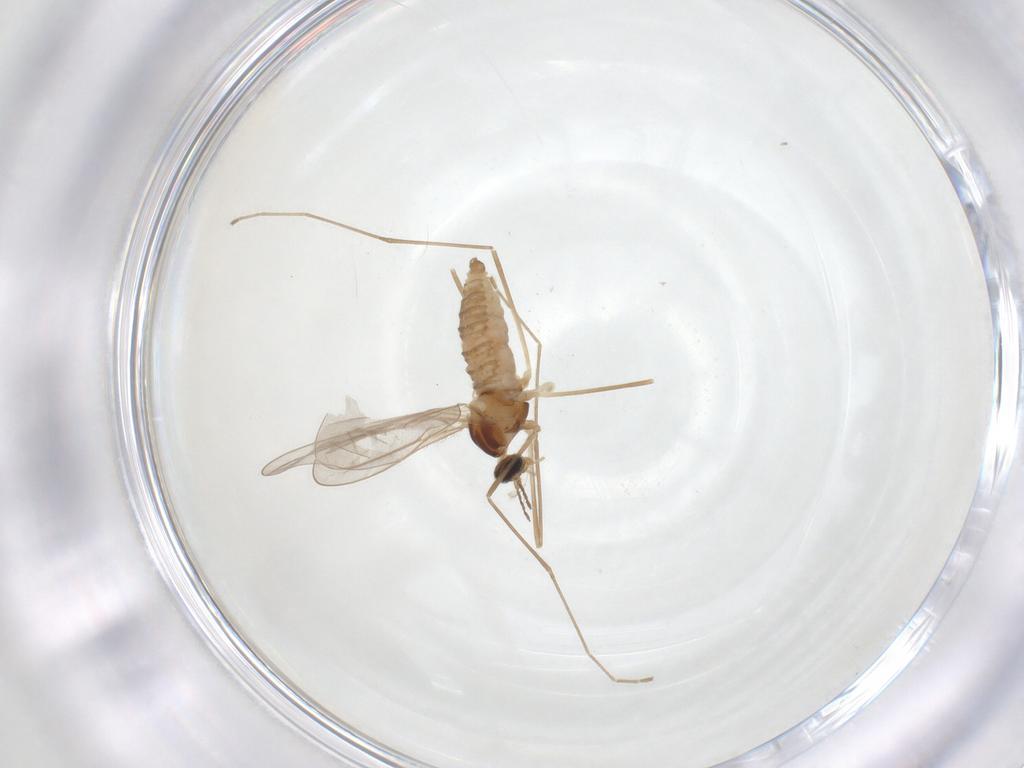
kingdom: Animalia
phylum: Arthropoda
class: Insecta
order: Diptera
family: Cecidomyiidae
